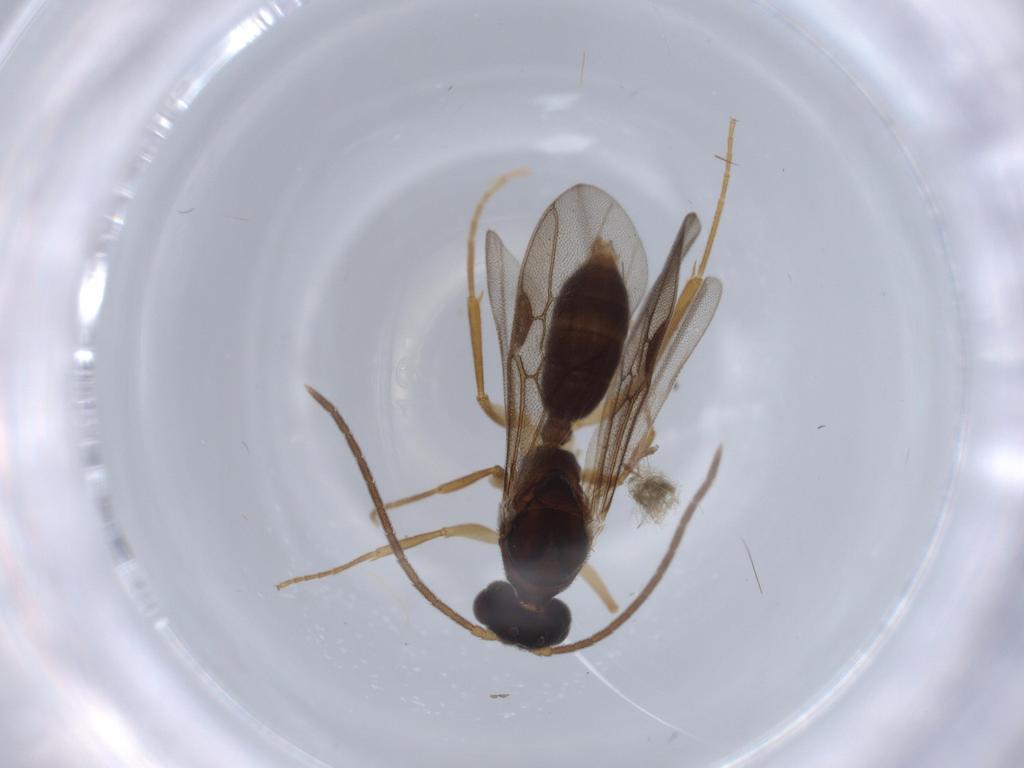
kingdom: Animalia
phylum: Arthropoda
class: Insecta
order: Hymenoptera
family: Formicidae
